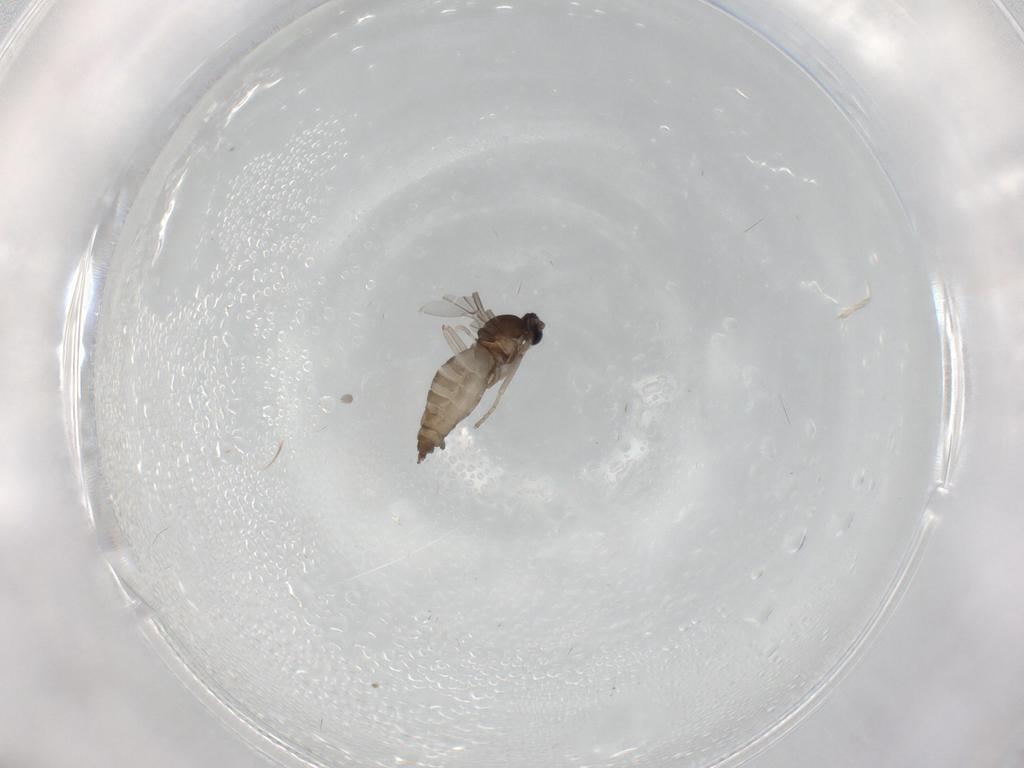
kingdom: Animalia
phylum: Arthropoda
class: Insecta
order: Diptera
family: Cecidomyiidae
